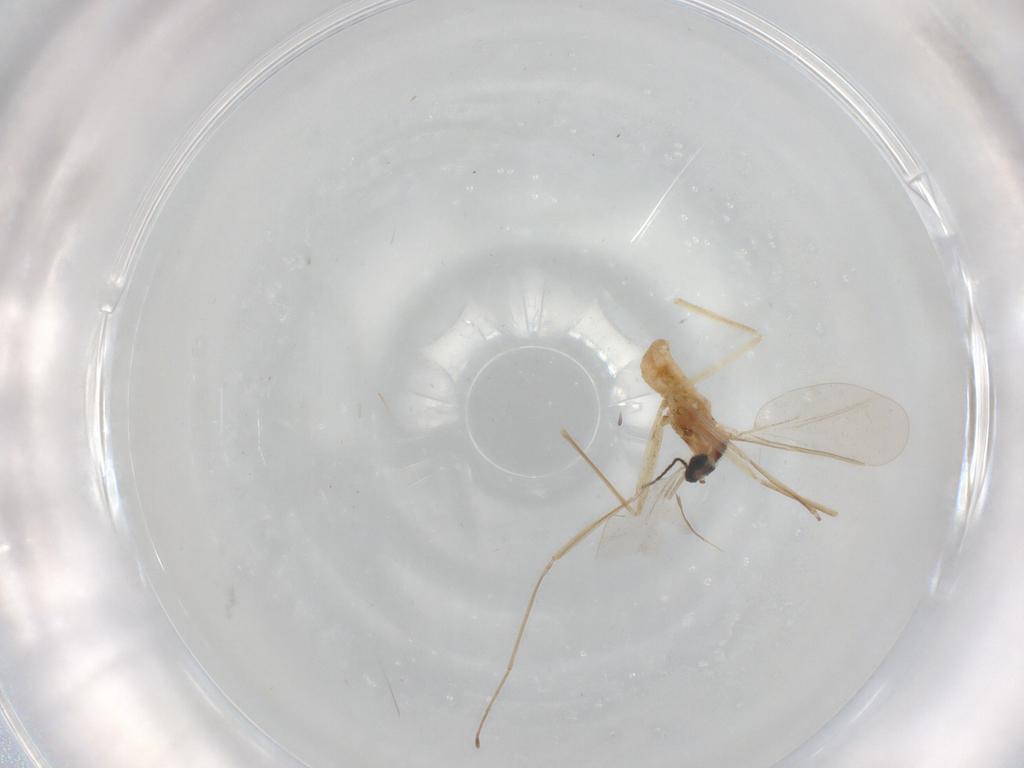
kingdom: Animalia
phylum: Arthropoda
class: Insecta
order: Diptera
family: Cecidomyiidae
